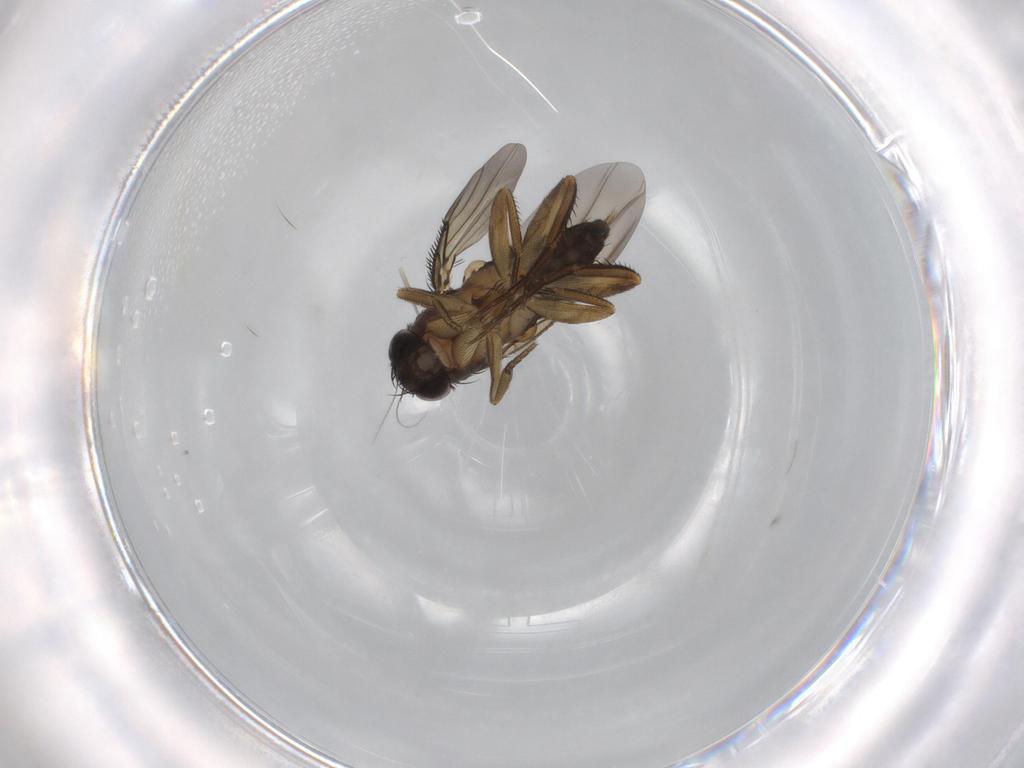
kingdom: Animalia
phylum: Arthropoda
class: Insecta
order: Diptera
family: Phoridae
